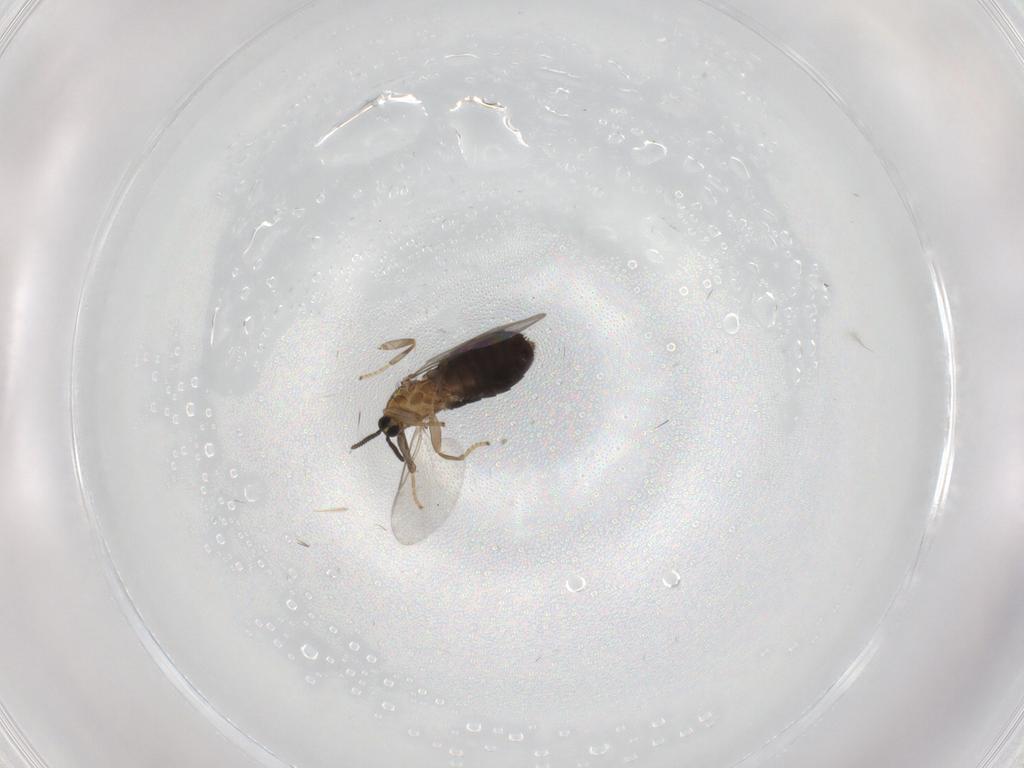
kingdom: Animalia
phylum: Arthropoda
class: Insecta
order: Diptera
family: Scatopsidae
